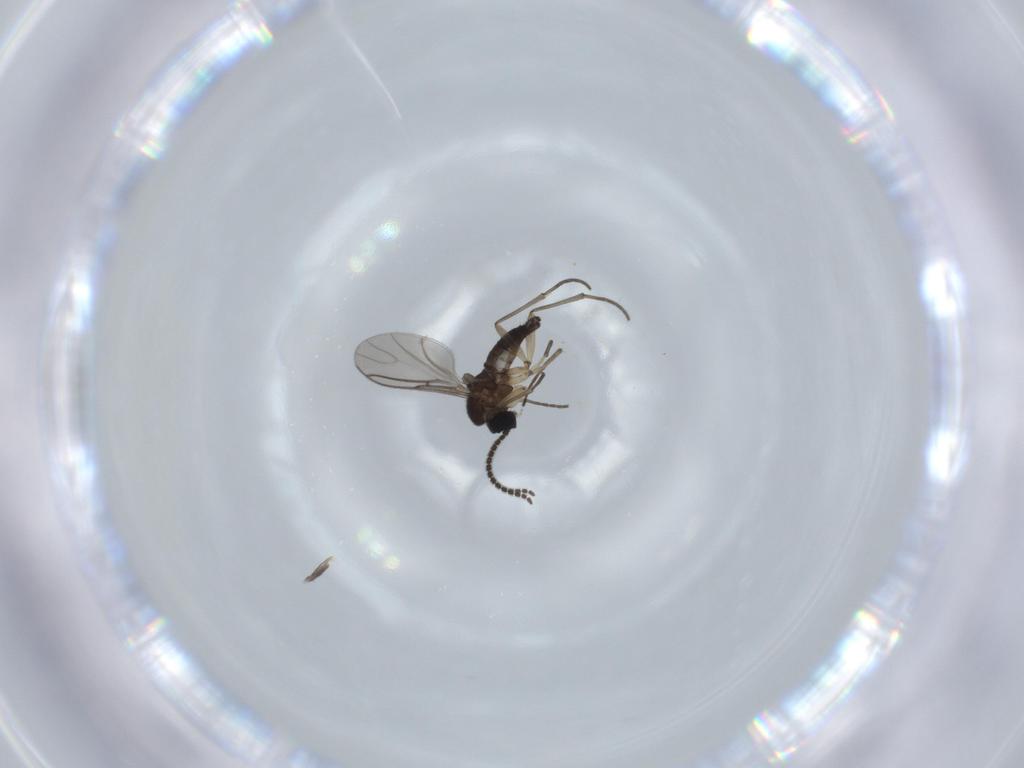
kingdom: Animalia
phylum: Arthropoda
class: Insecta
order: Diptera
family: Sciaridae
